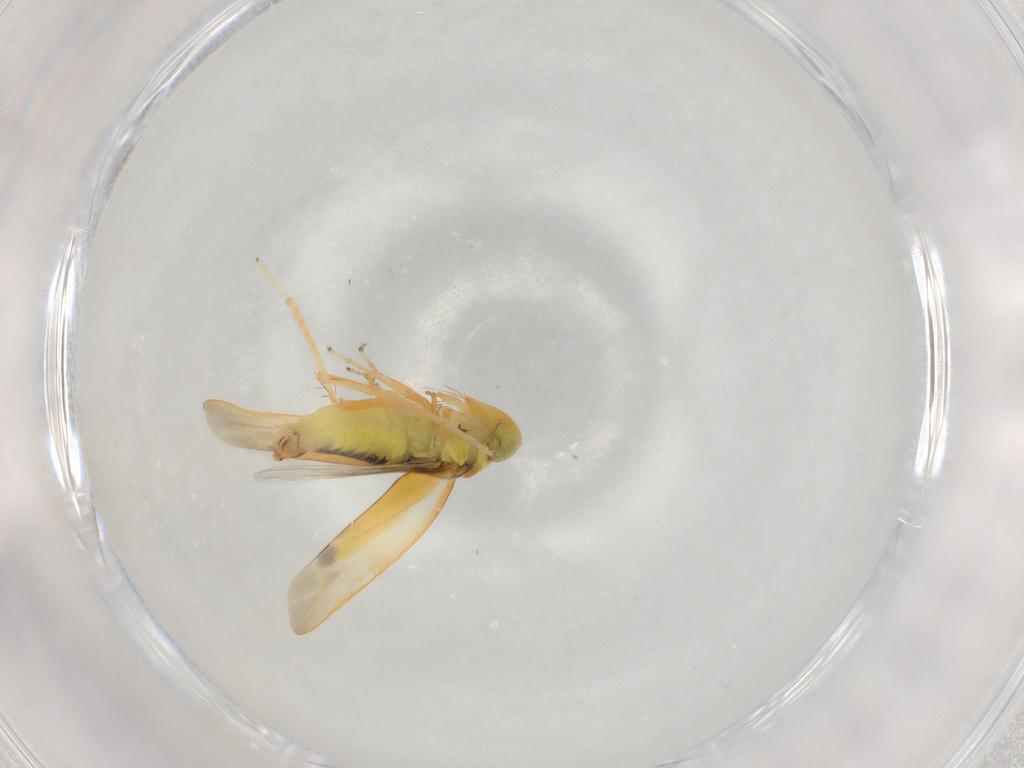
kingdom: Animalia
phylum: Arthropoda
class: Insecta
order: Hemiptera
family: Cicadellidae
